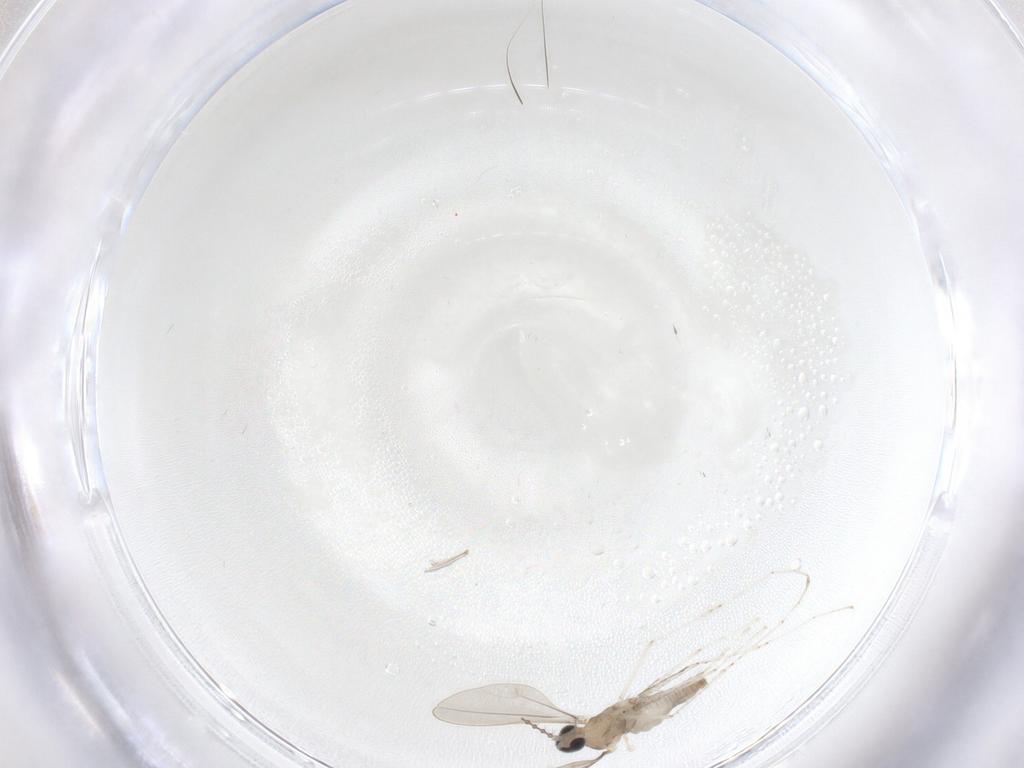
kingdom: Animalia
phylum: Arthropoda
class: Insecta
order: Diptera
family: Cecidomyiidae
